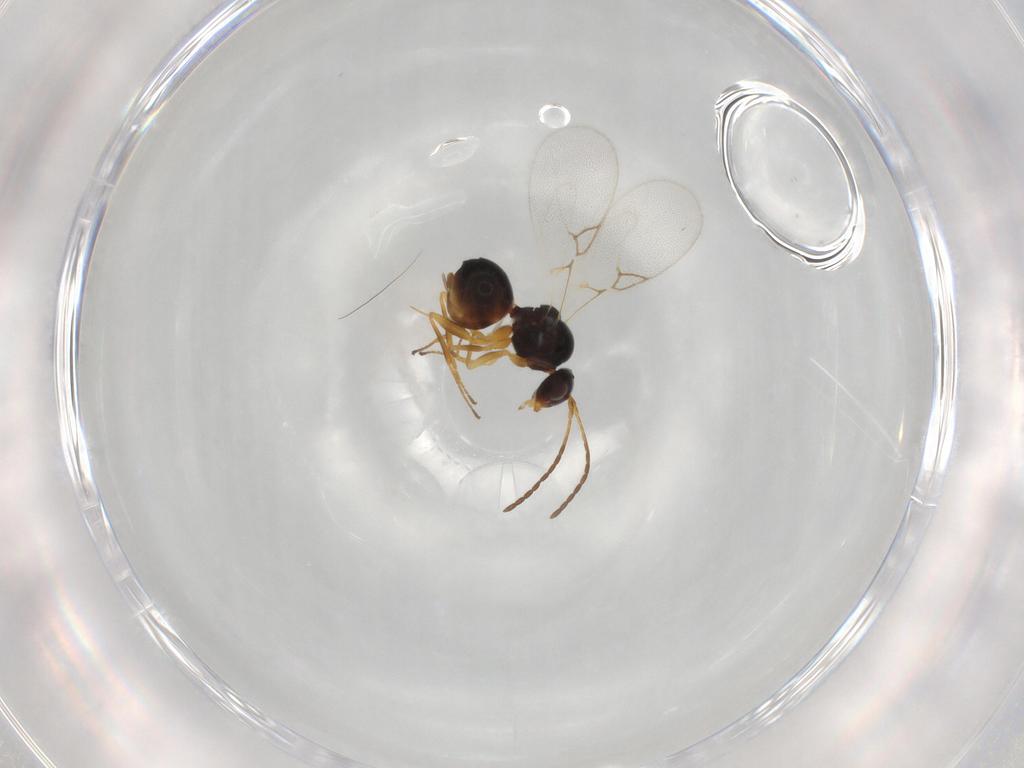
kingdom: Animalia
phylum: Arthropoda
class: Insecta
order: Hymenoptera
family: Figitidae
